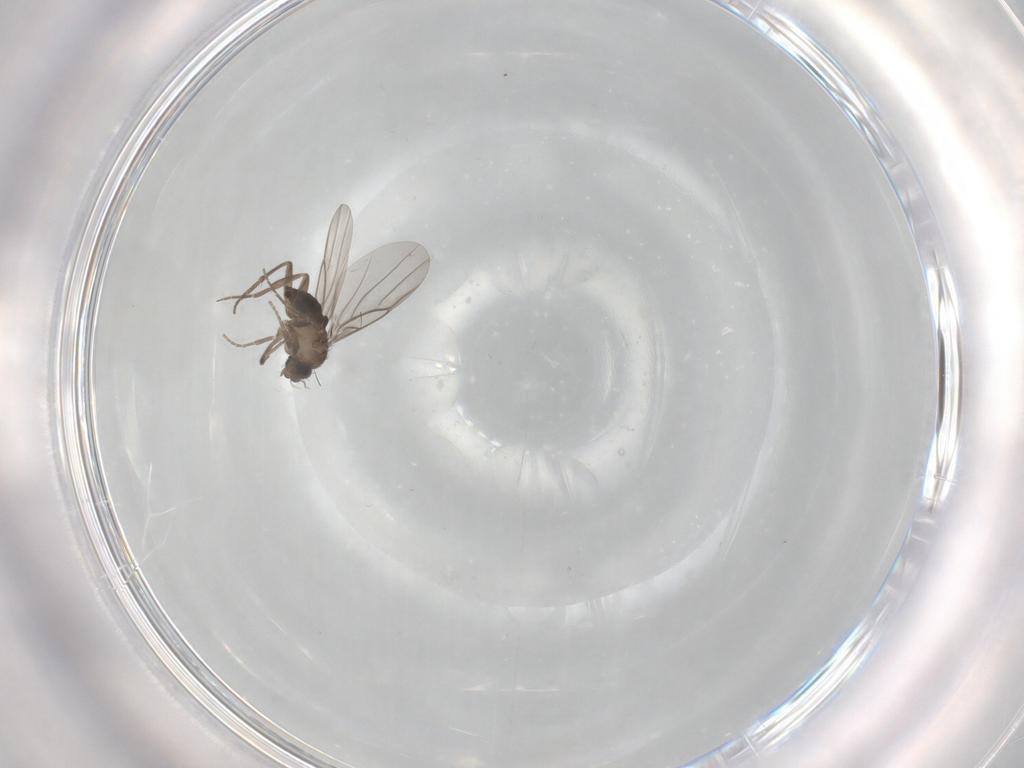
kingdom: Animalia
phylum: Arthropoda
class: Insecta
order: Diptera
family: Cecidomyiidae
